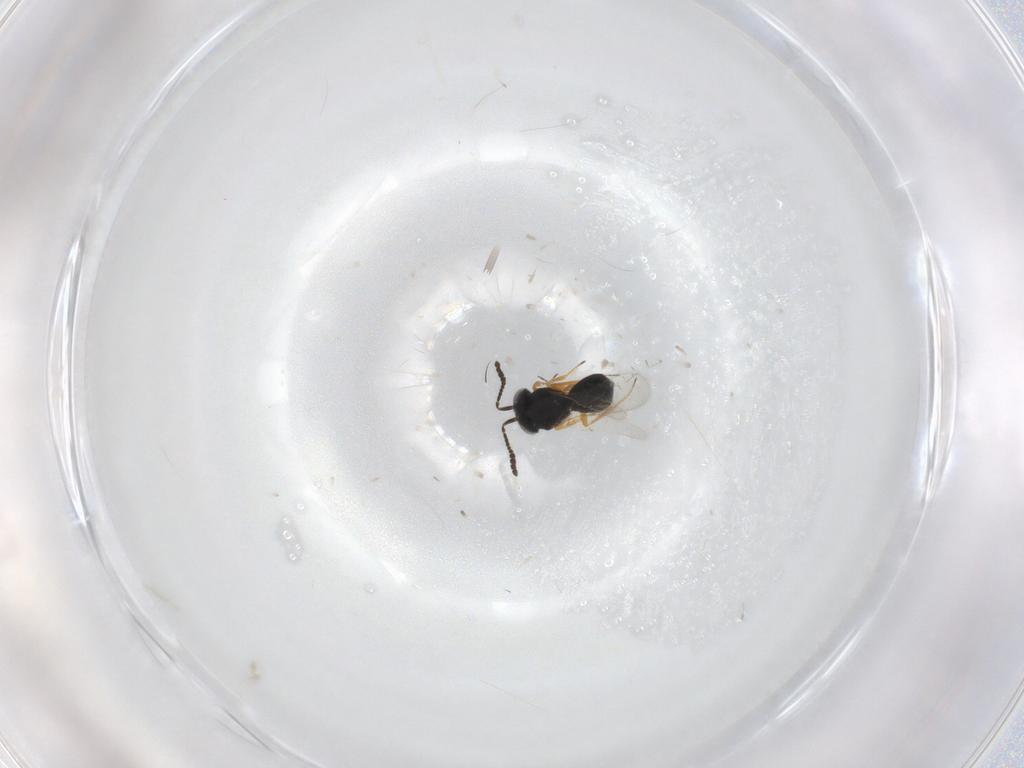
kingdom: Animalia
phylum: Arthropoda
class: Insecta
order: Hymenoptera
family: Scelionidae
